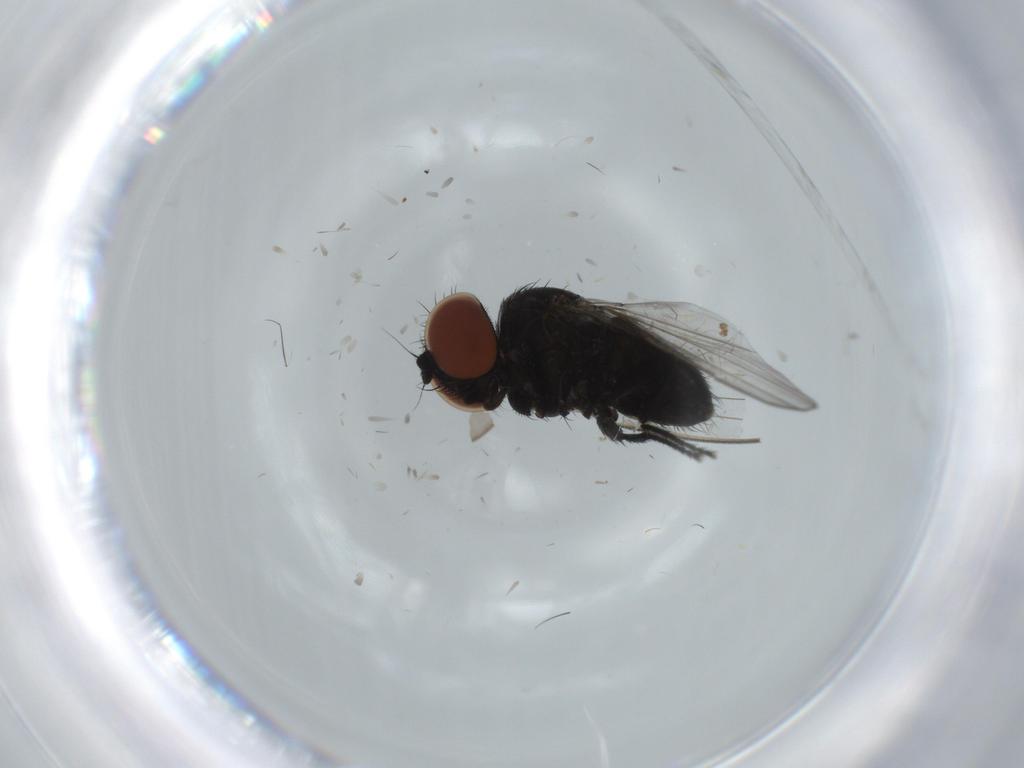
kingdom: Animalia
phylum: Arthropoda
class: Insecta
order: Diptera
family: Milichiidae
